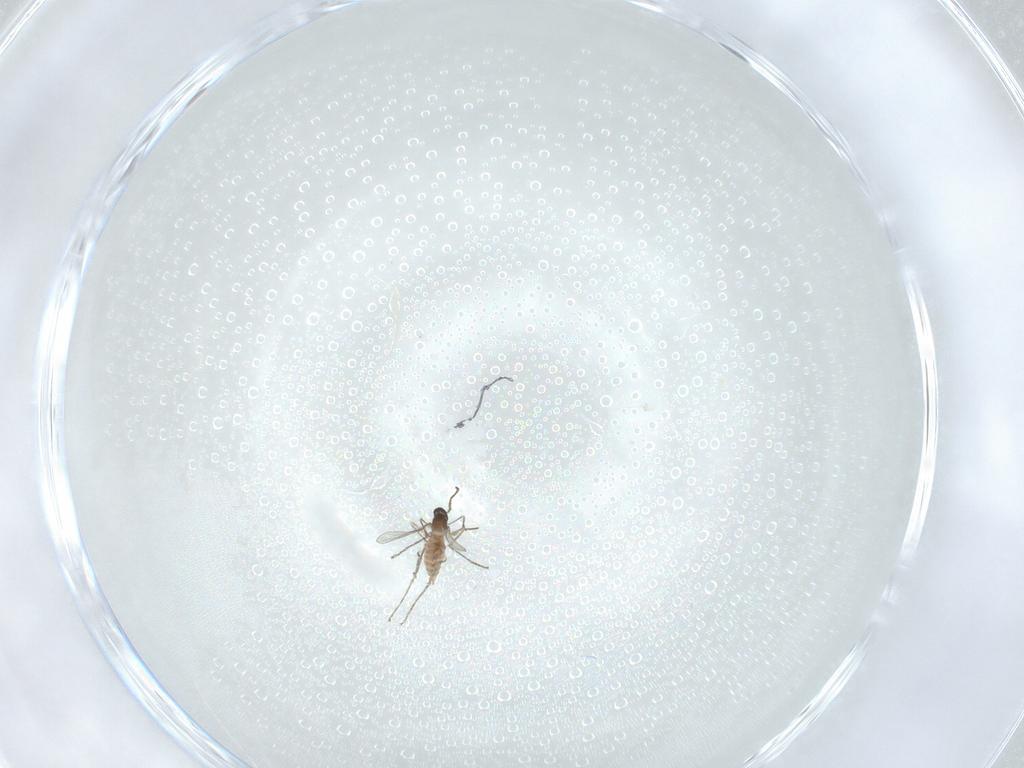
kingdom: Animalia
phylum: Arthropoda
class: Insecta
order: Diptera
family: Cecidomyiidae
